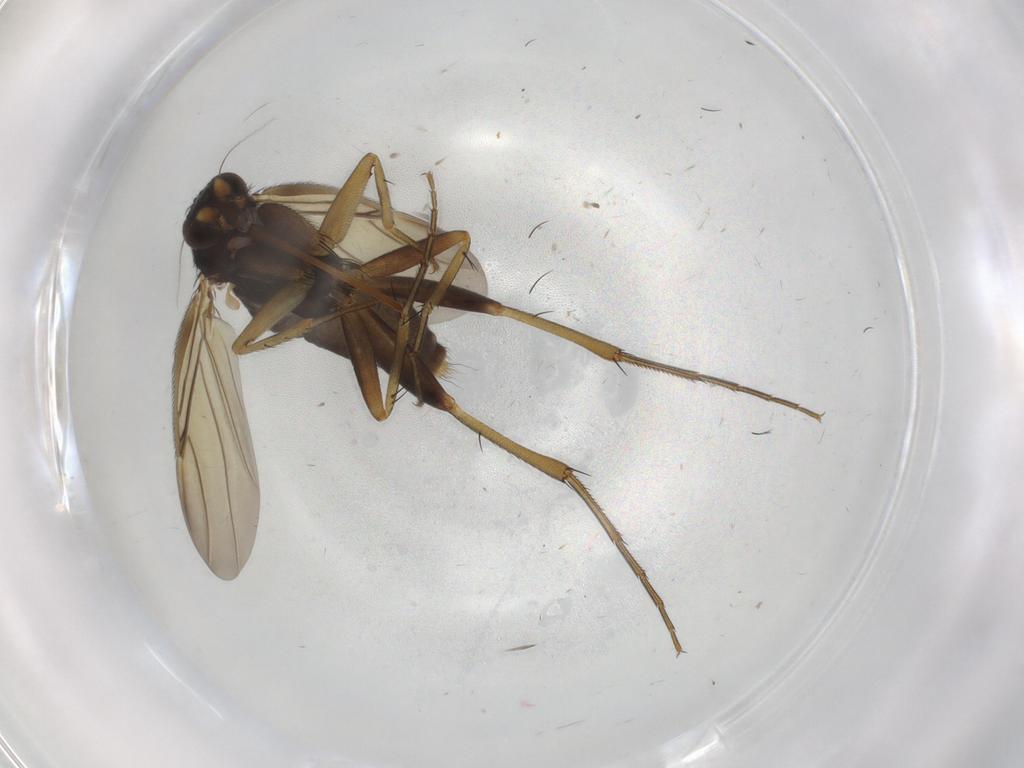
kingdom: Animalia
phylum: Arthropoda
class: Insecta
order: Diptera
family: Phoridae
